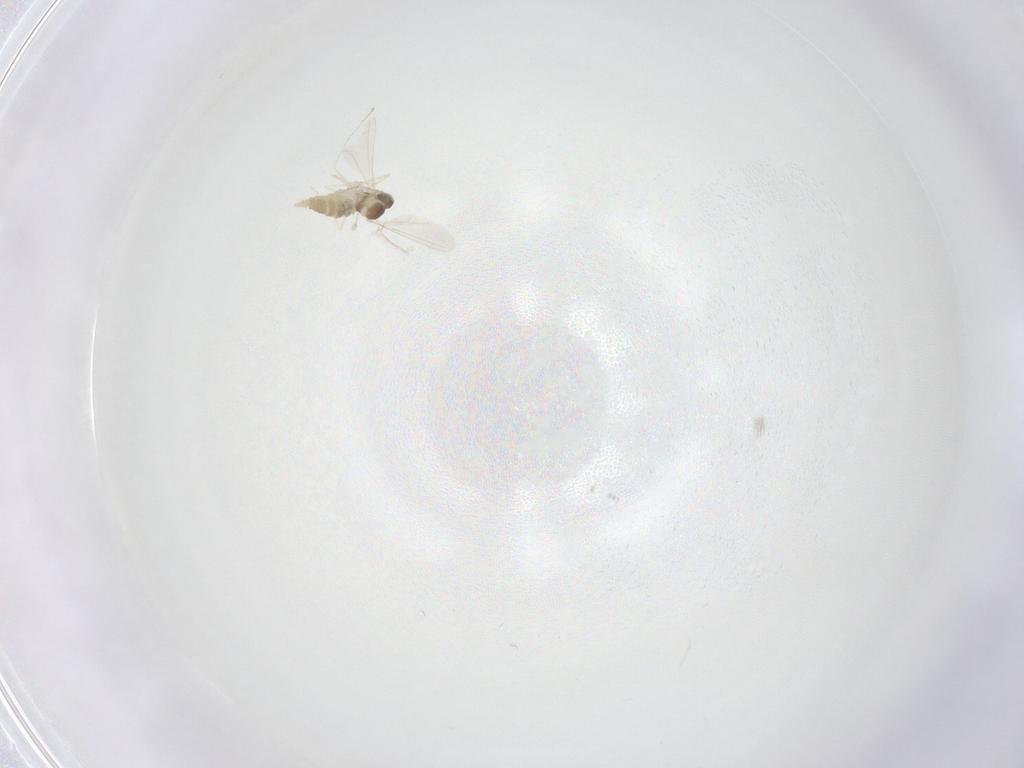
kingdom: Animalia
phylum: Arthropoda
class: Insecta
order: Diptera
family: Cecidomyiidae
